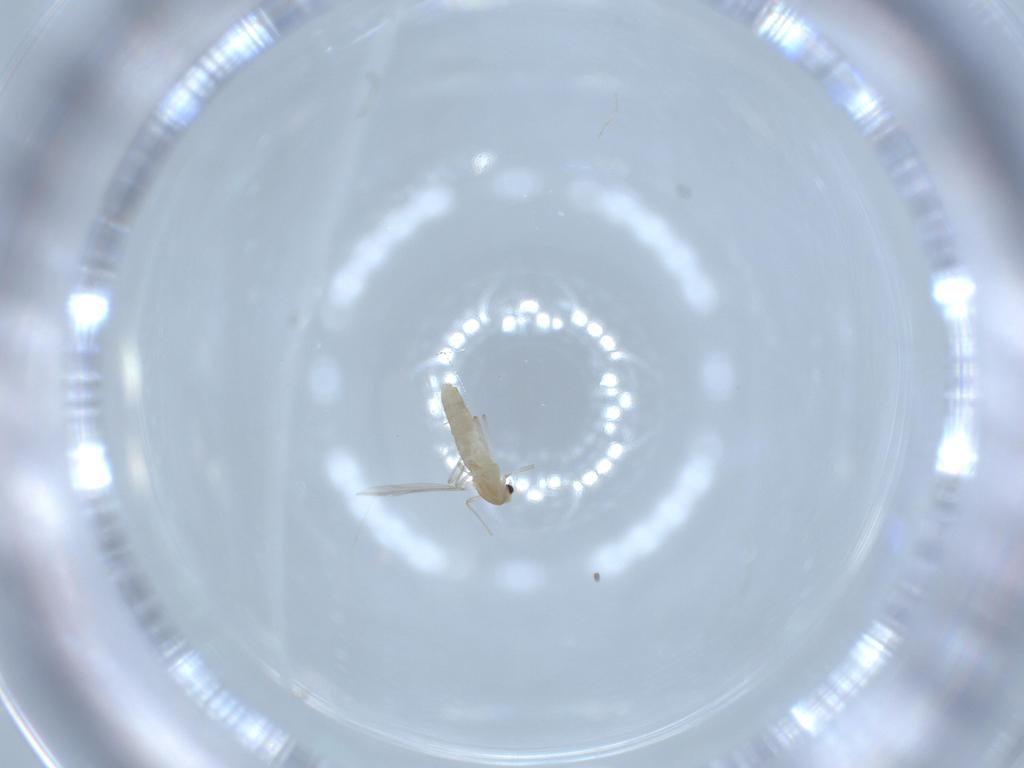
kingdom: Animalia
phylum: Arthropoda
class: Insecta
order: Diptera
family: Chironomidae
